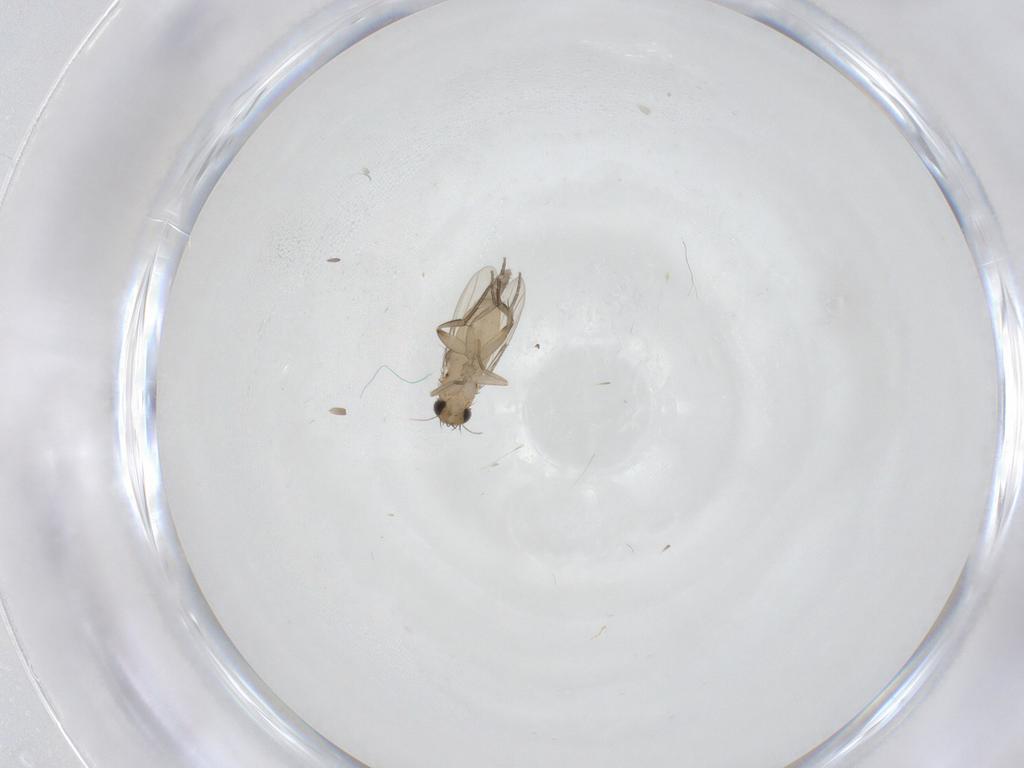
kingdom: Animalia
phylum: Arthropoda
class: Insecta
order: Diptera
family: Phoridae
